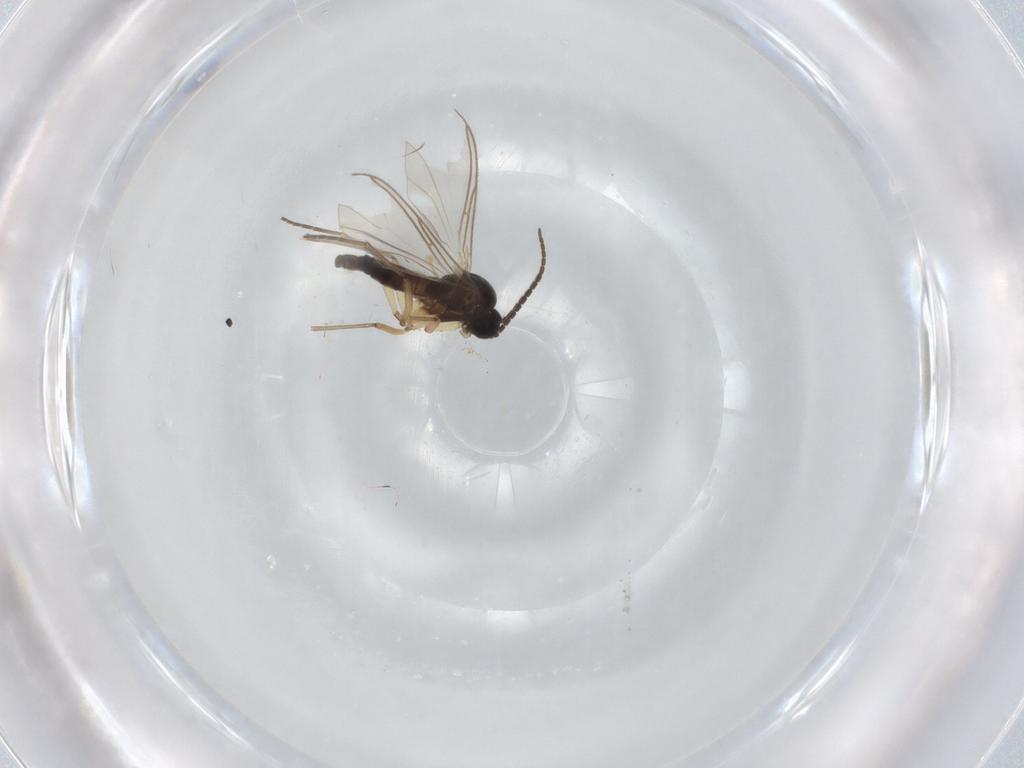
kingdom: Animalia
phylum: Arthropoda
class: Insecta
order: Diptera
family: Sciaridae
